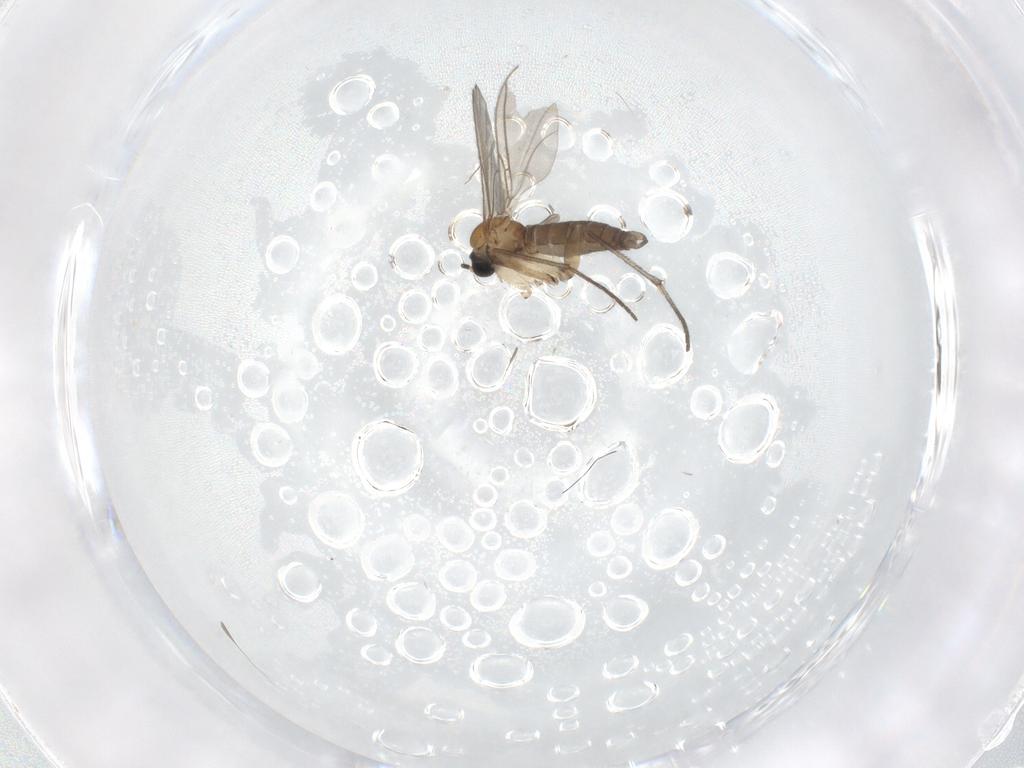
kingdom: Animalia
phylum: Arthropoda
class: Insecta
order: Diptera
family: Sciaridae
